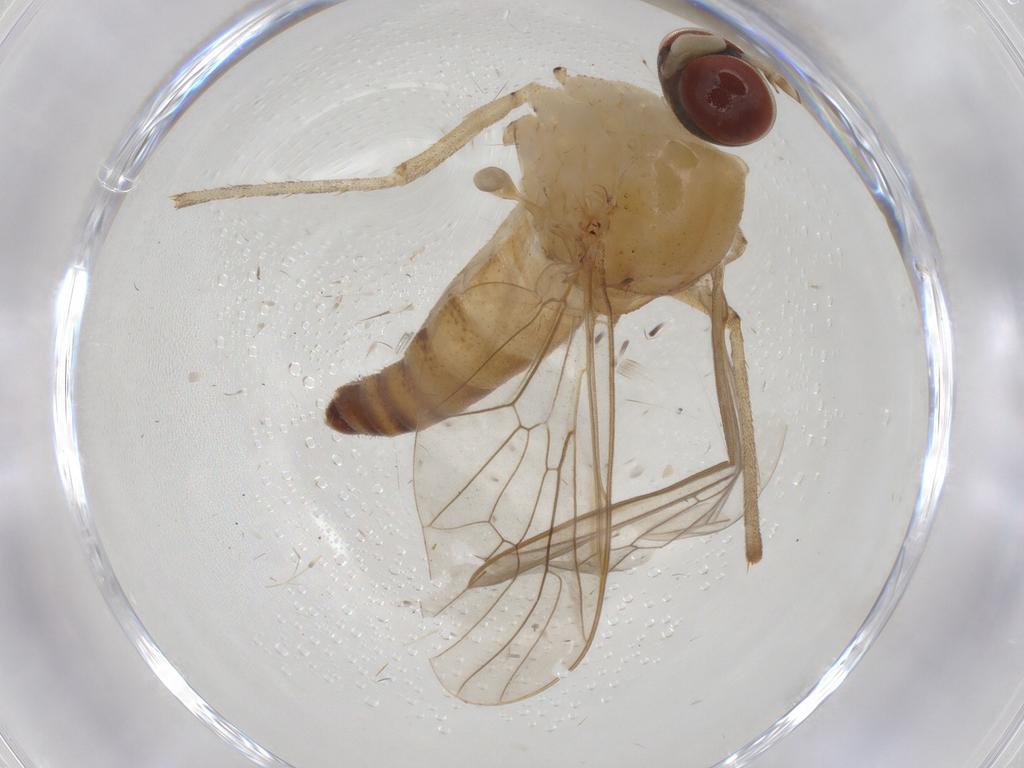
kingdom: Animalia
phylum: Arthropoda
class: Insecta
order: Diptera
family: Apsilocephalidae
